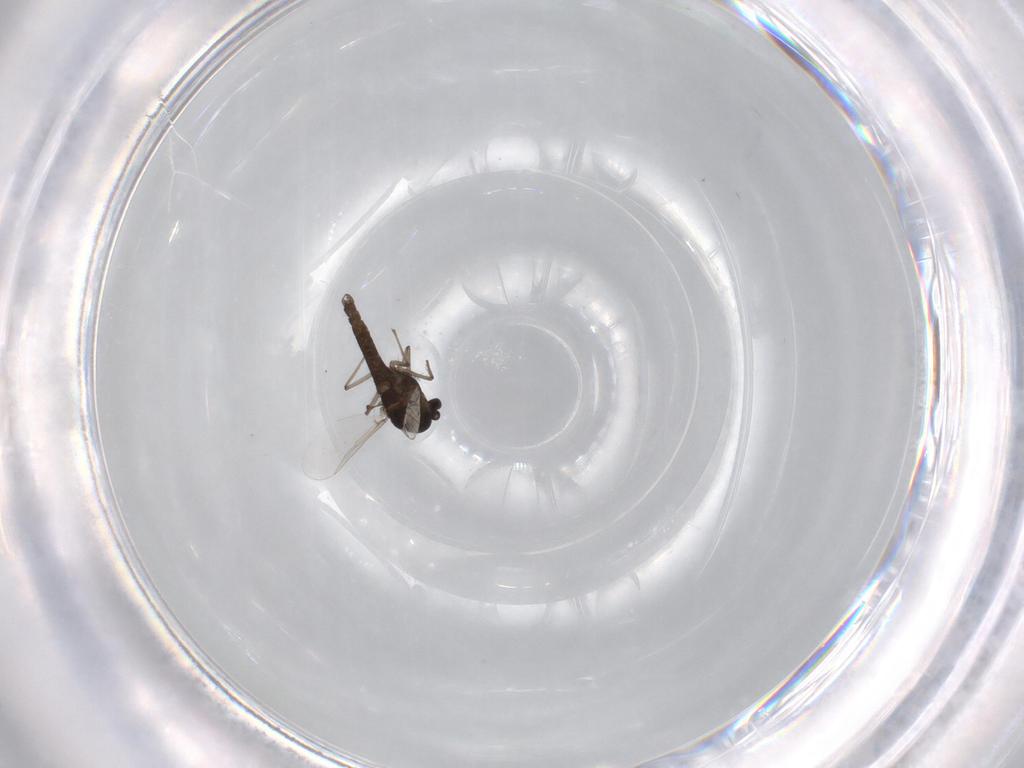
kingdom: Animalia
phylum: Arthropoda
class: Insecta
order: Diptera
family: Chironomidae
